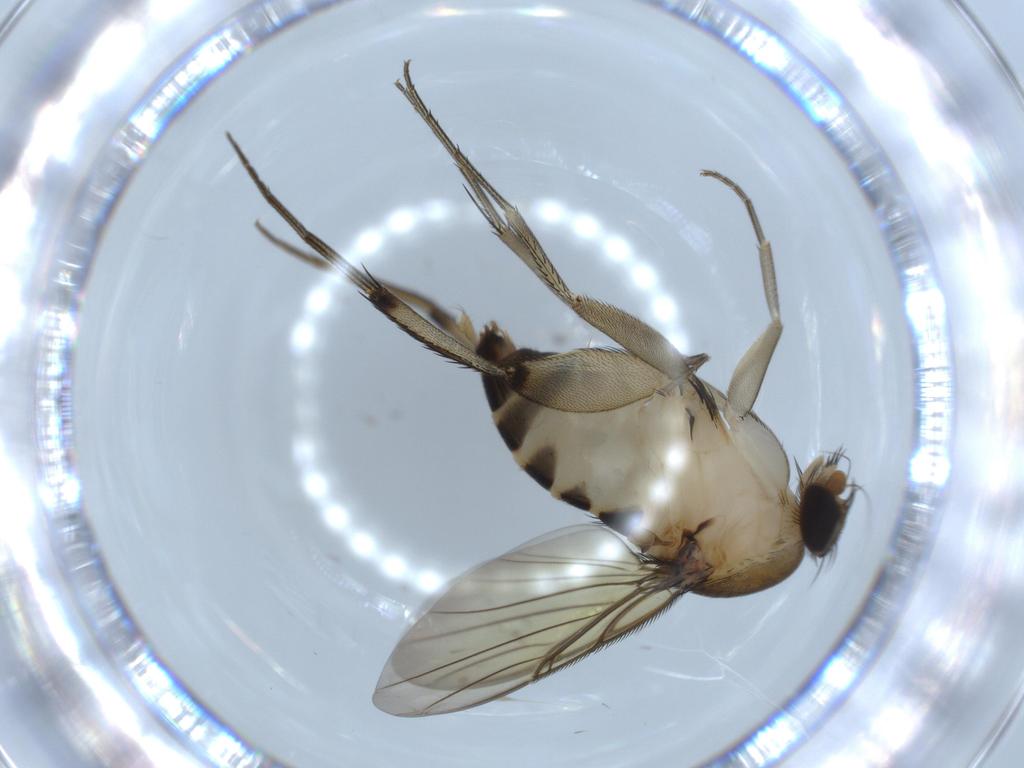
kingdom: Animalia
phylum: Arthropoda
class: Insecta
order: Diptera
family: Phoridae
